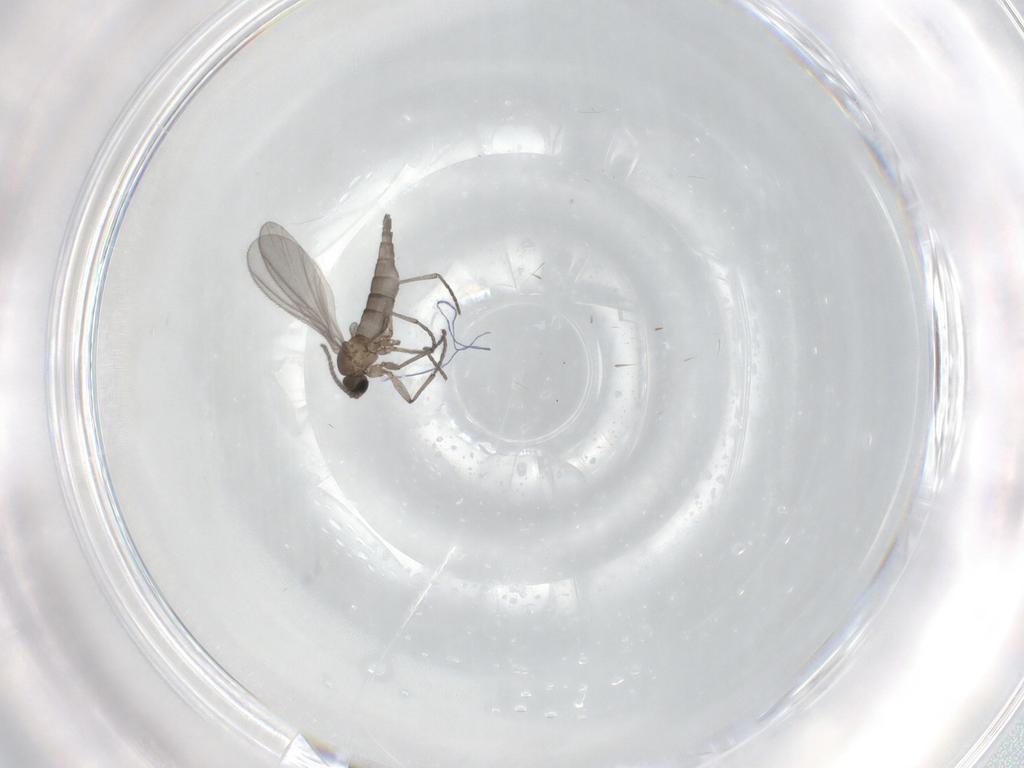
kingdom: Animalia
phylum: Arthropoda
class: Insecta
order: Diptera
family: Sciaridae
